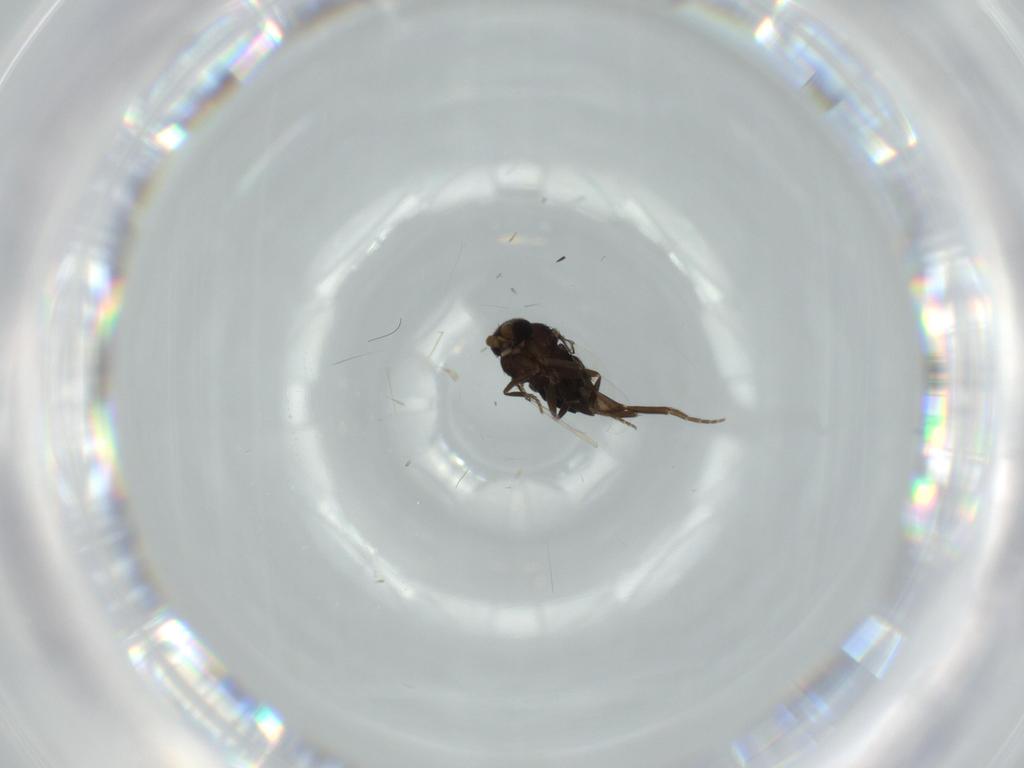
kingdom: Animalia
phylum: Arthropoda
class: Insecta
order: Diptera
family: Phoridae
